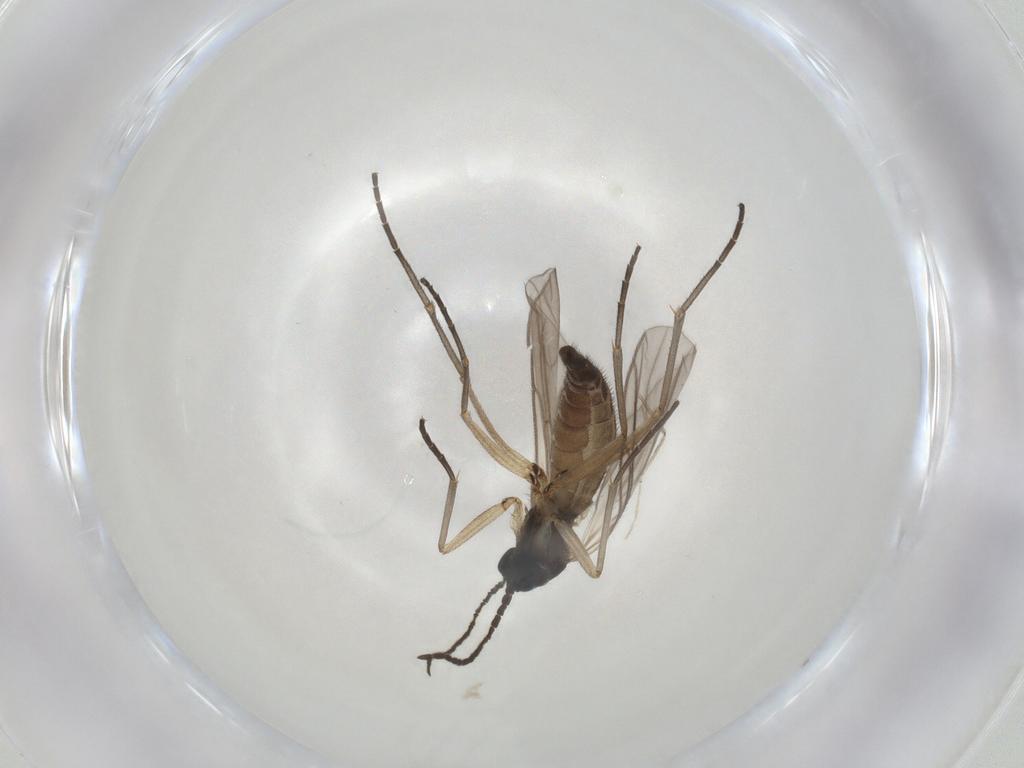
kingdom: Animalia
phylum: Arthropoda
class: Insecta
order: Diptera
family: Sciaridae
